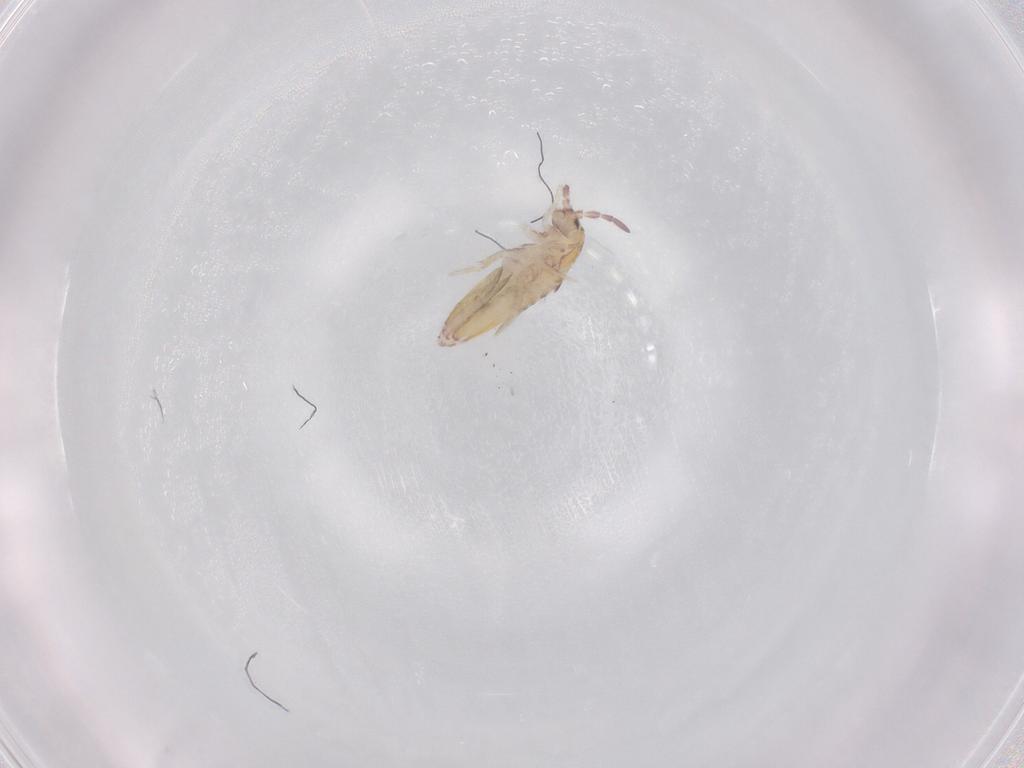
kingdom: Animalia
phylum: Arthropoda
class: Collembola
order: Entomobryomorpha
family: Entomobryidae
